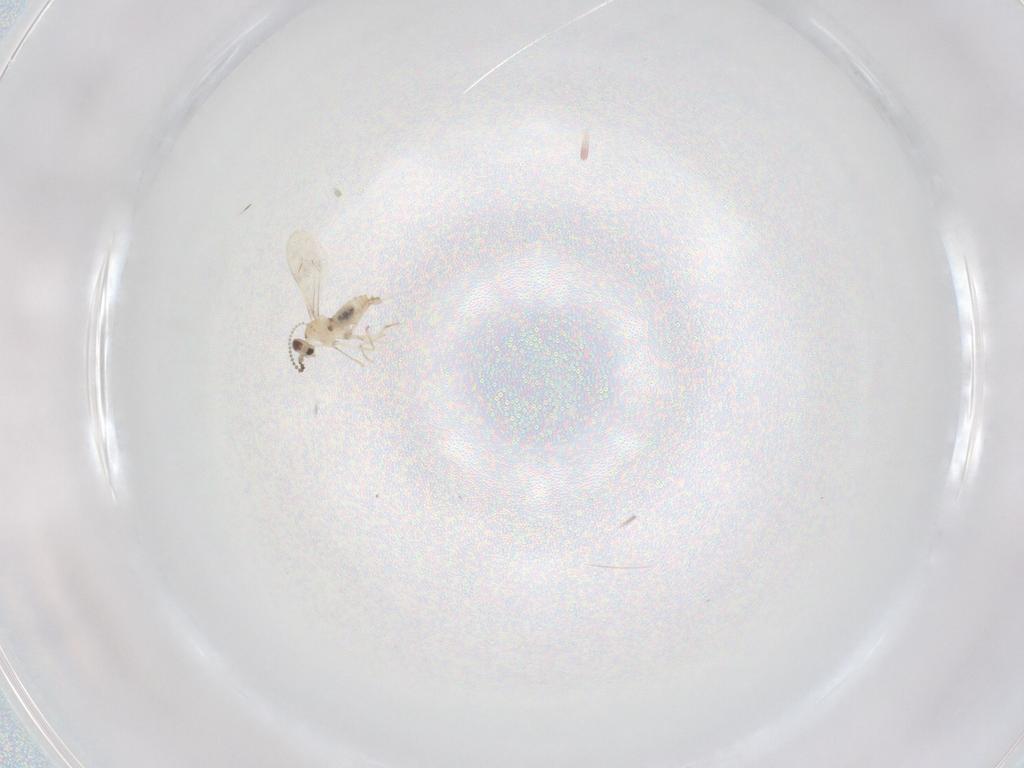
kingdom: Animalia
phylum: Arthropoda
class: Insecta
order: Diptera
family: Cecidomyiidae
